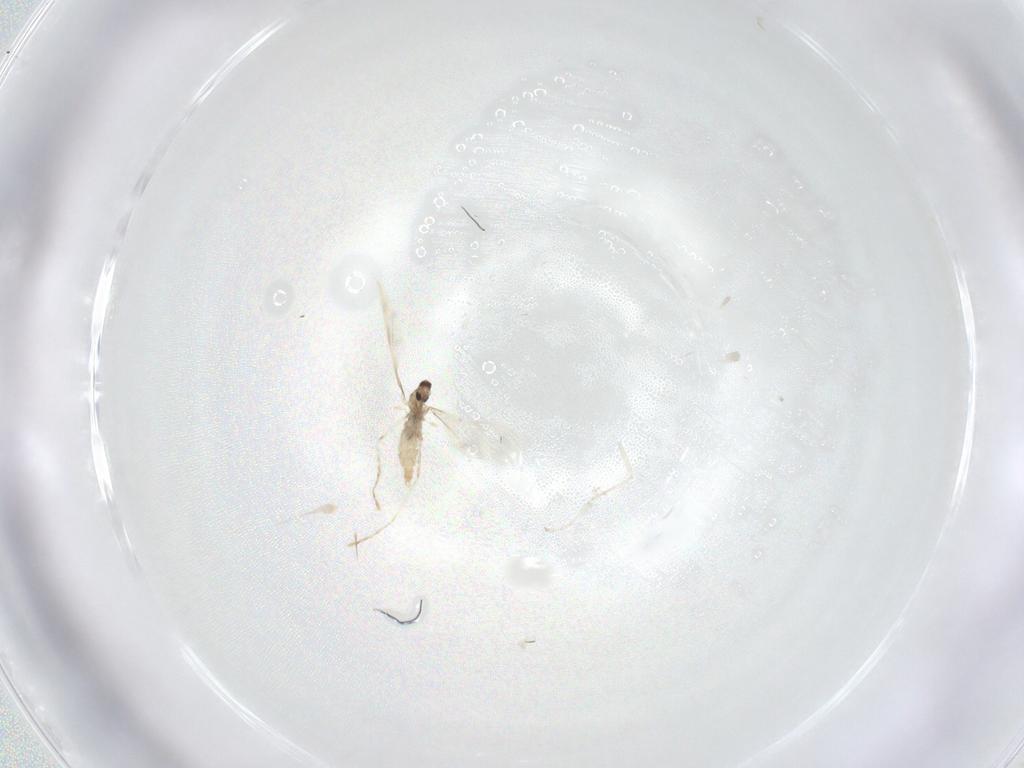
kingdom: Animalia
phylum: Arthropoda
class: Insecta
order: Diptera
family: Cecidomyiidae
